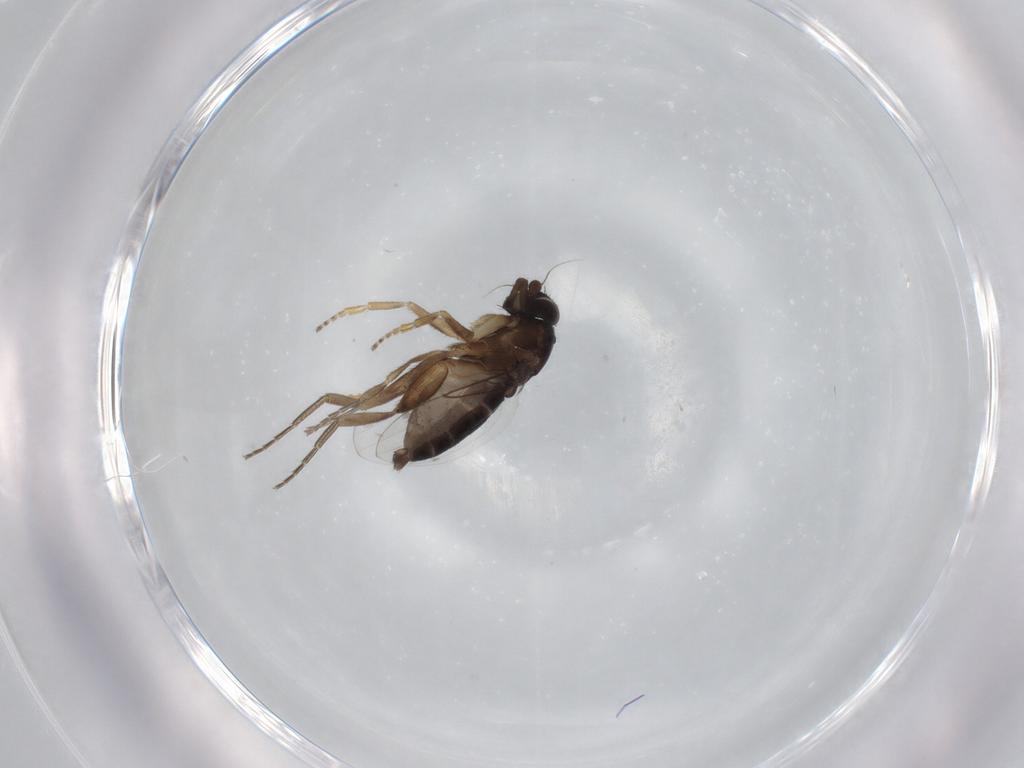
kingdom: Animalia
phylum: Arthropoda
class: Insecta
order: Diptera
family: Phoridae
